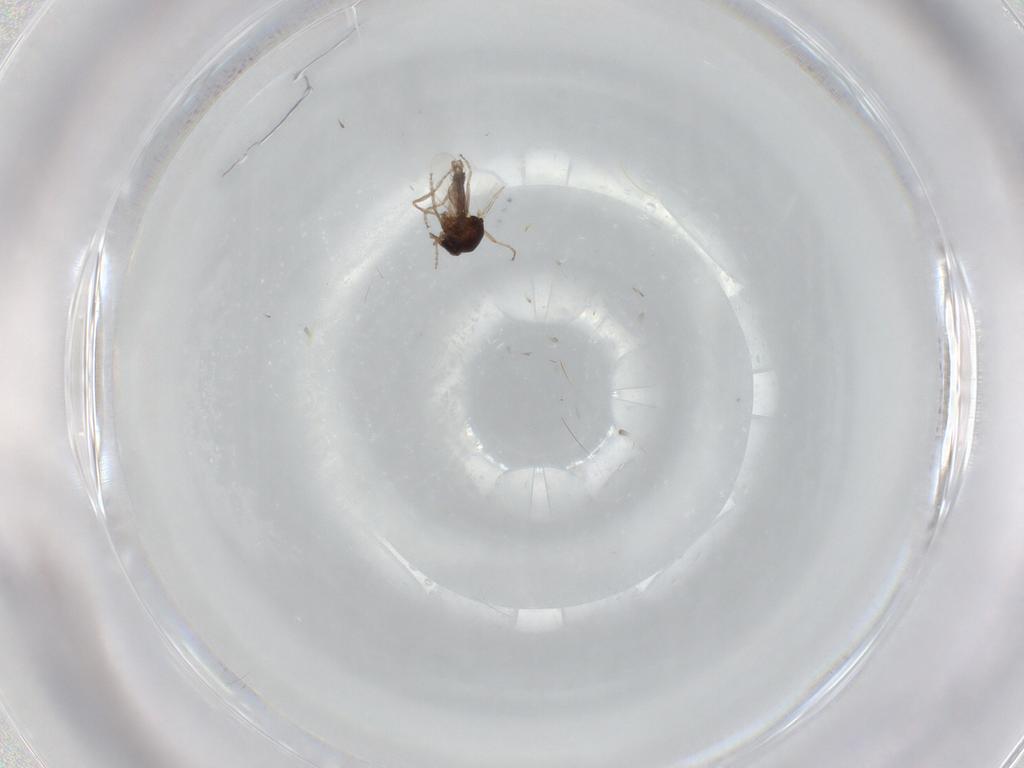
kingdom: Animalia
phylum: Arthropoda
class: Insecta
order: Diptera
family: Ceratopogonidae
